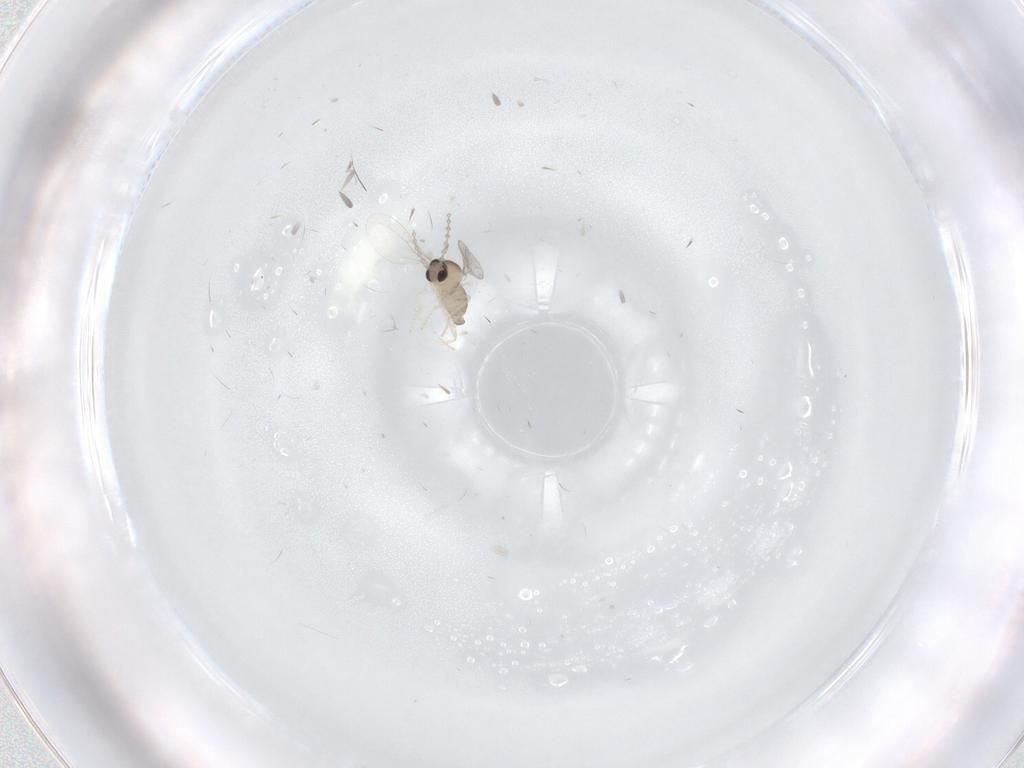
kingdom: Animalia
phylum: Arthropoda
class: Insecta
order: Diptera
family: Cecidomyiidae
